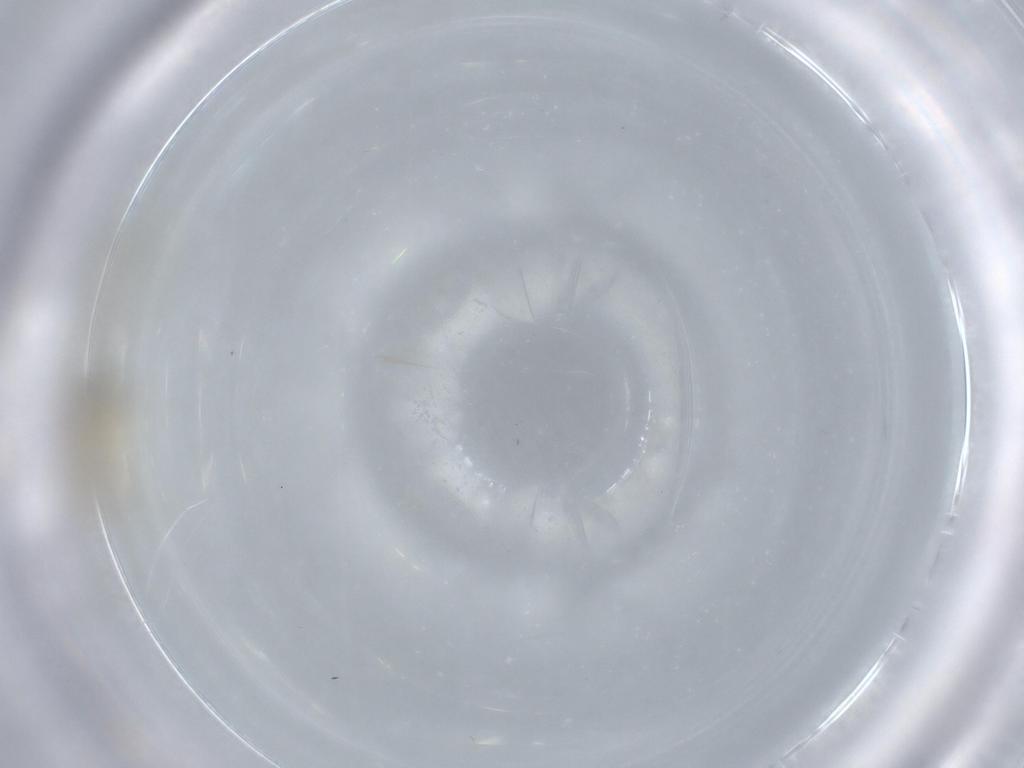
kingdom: Animalia
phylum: Arthropoda
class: Insecta
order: Diptera
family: Cecidomyiidae
